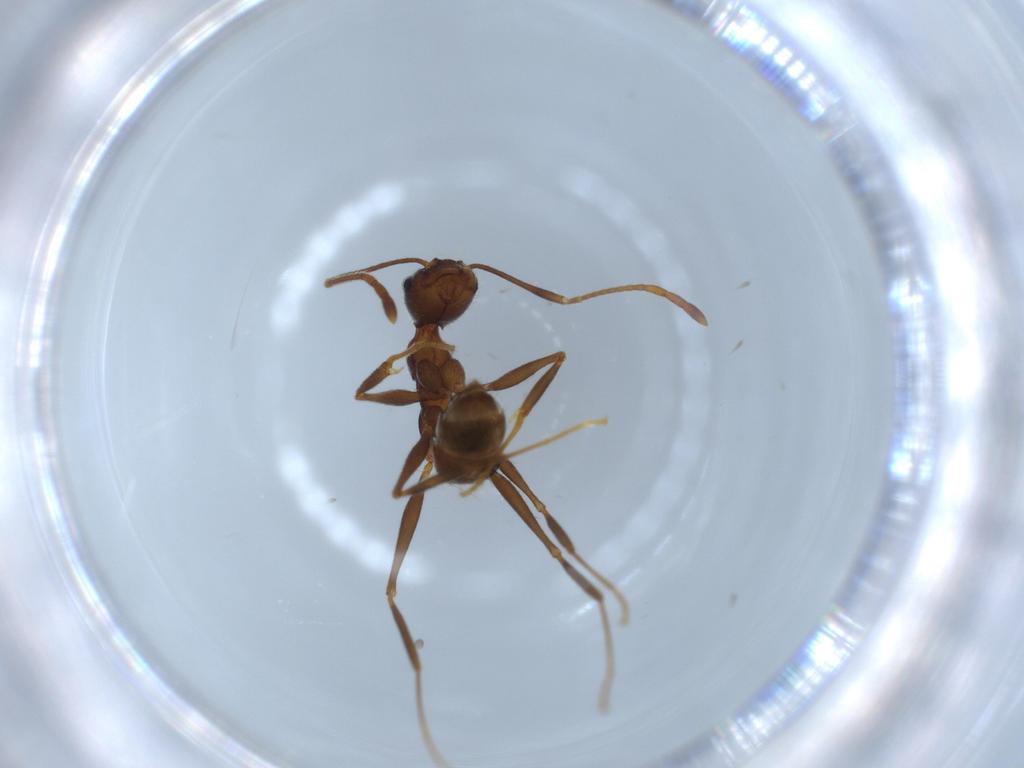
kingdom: Animalia
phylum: Arthropoda
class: Insecta
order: Hymenoptera
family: Formicidae
